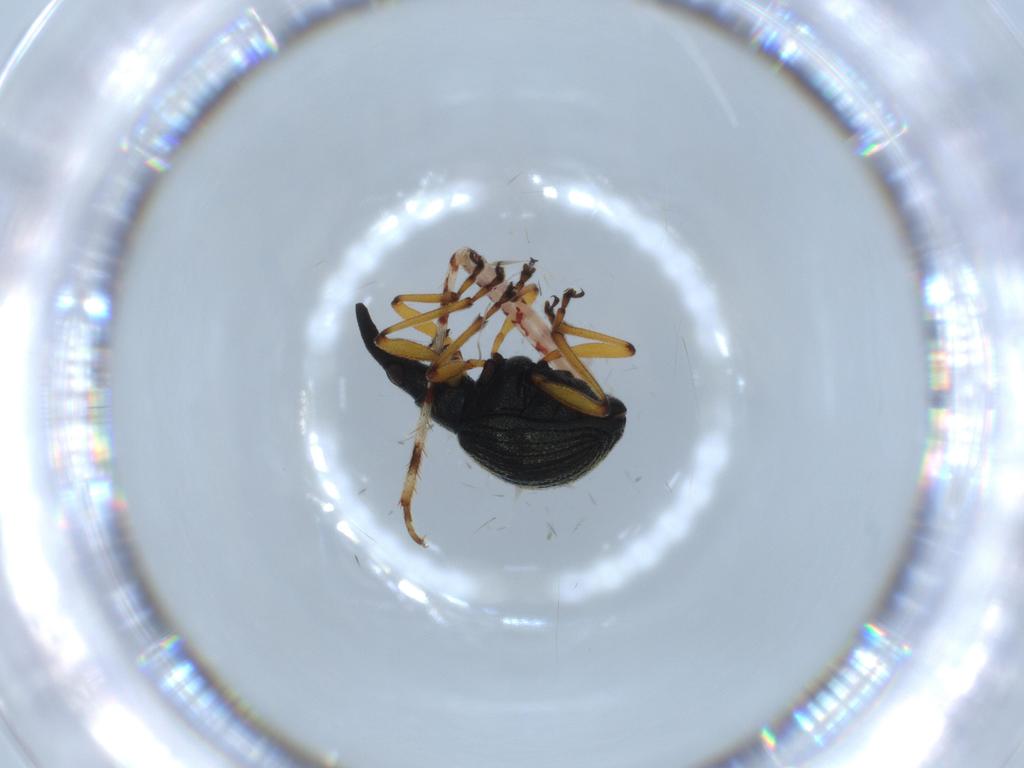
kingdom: Animalia
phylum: Arthropoda
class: Insecta
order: Coleoptera
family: Brentidae
